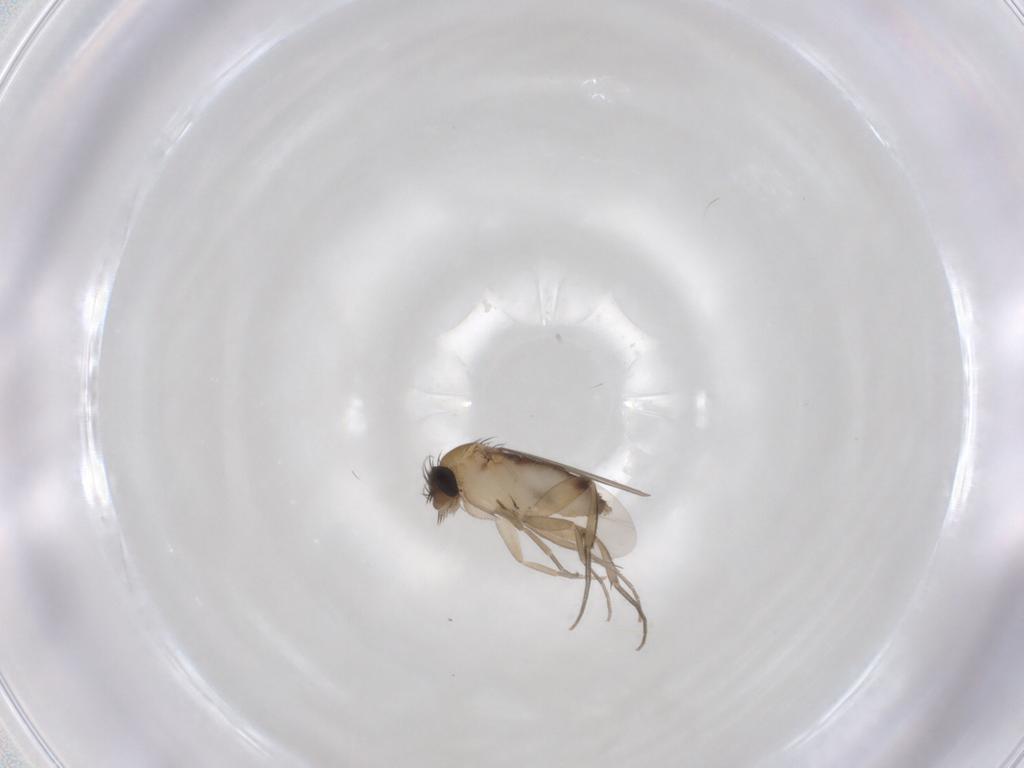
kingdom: Animalia
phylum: Arthropoda
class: Insecta
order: Diptera
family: Phoridae
